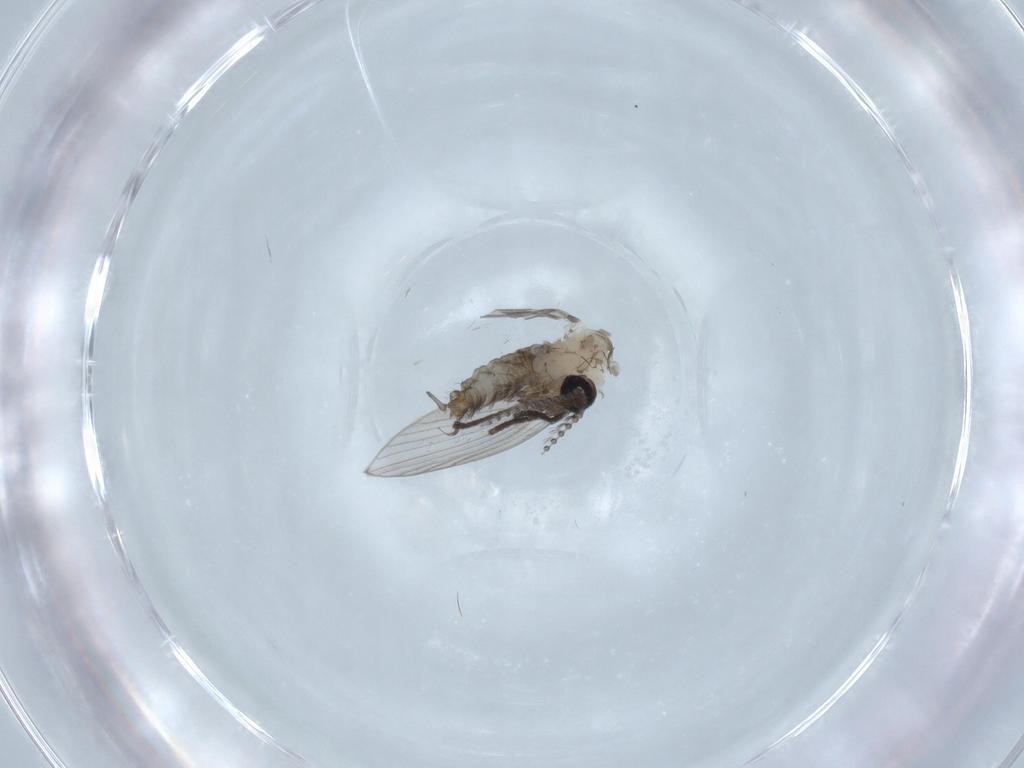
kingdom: Animalia
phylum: Arthropoda
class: Insecta
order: Diptera
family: Psychodidae
